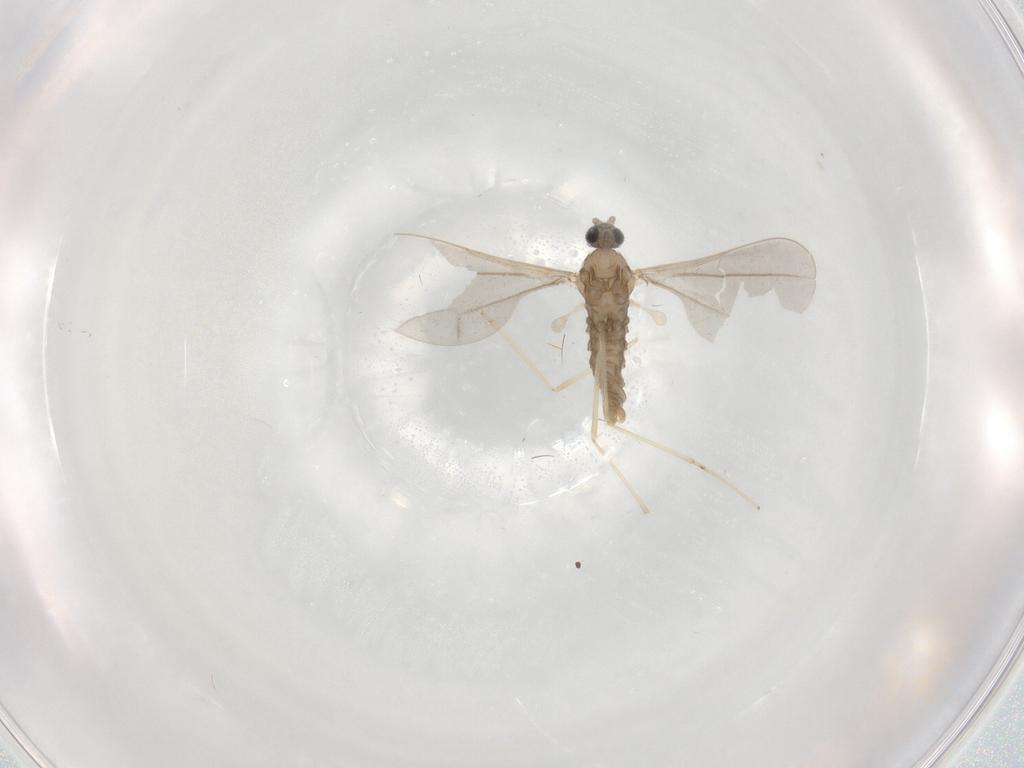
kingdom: Animalia
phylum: Arthropoda
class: Insecta
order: Diptera
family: Cecidomyiidae
